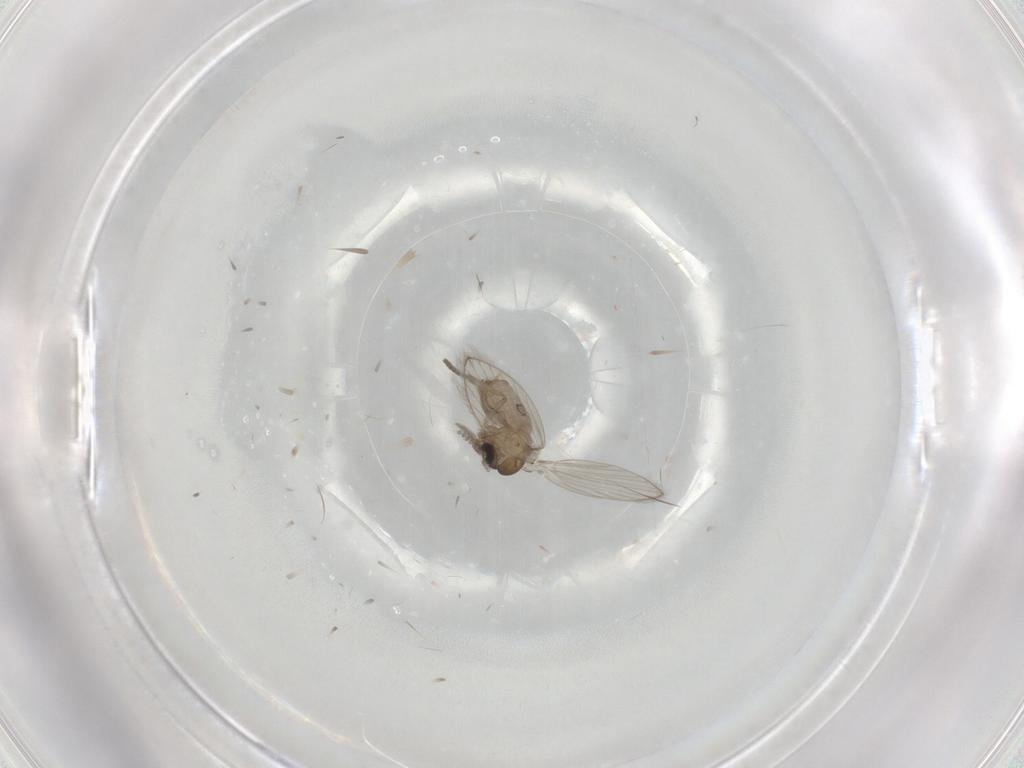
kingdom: Animalia
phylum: Arthropoda
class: Insecta
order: Diptera
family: Psychodidae
